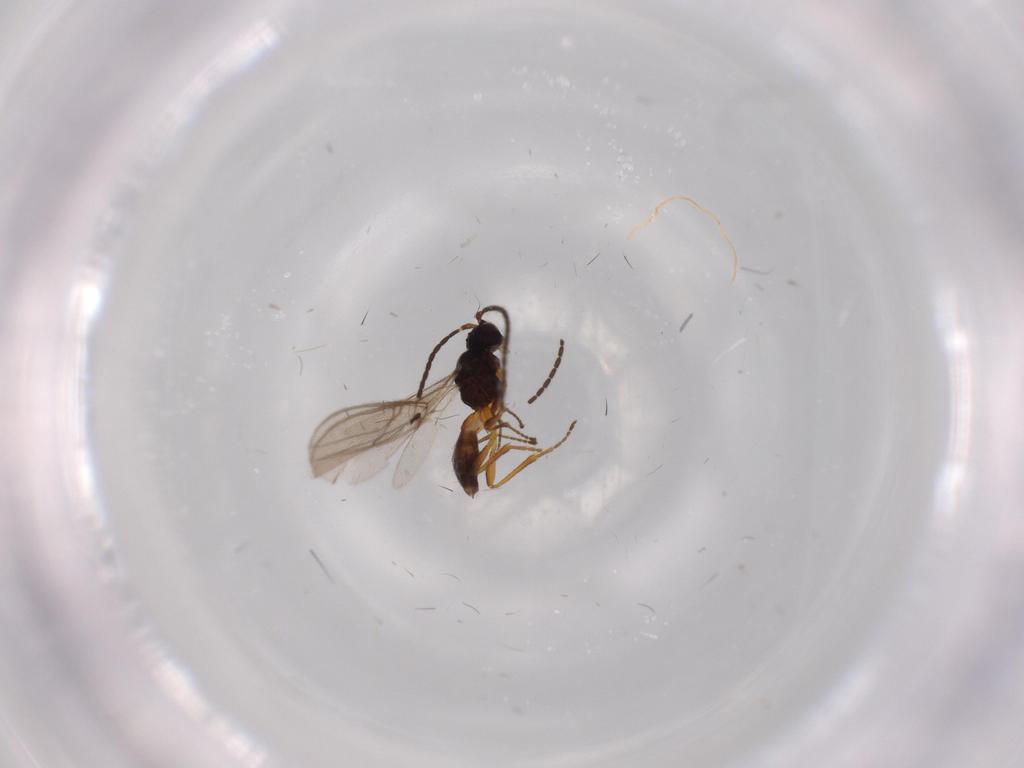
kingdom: Animalia
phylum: Arthropoda
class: Insecta
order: Hymenoptera
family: Braconidae
